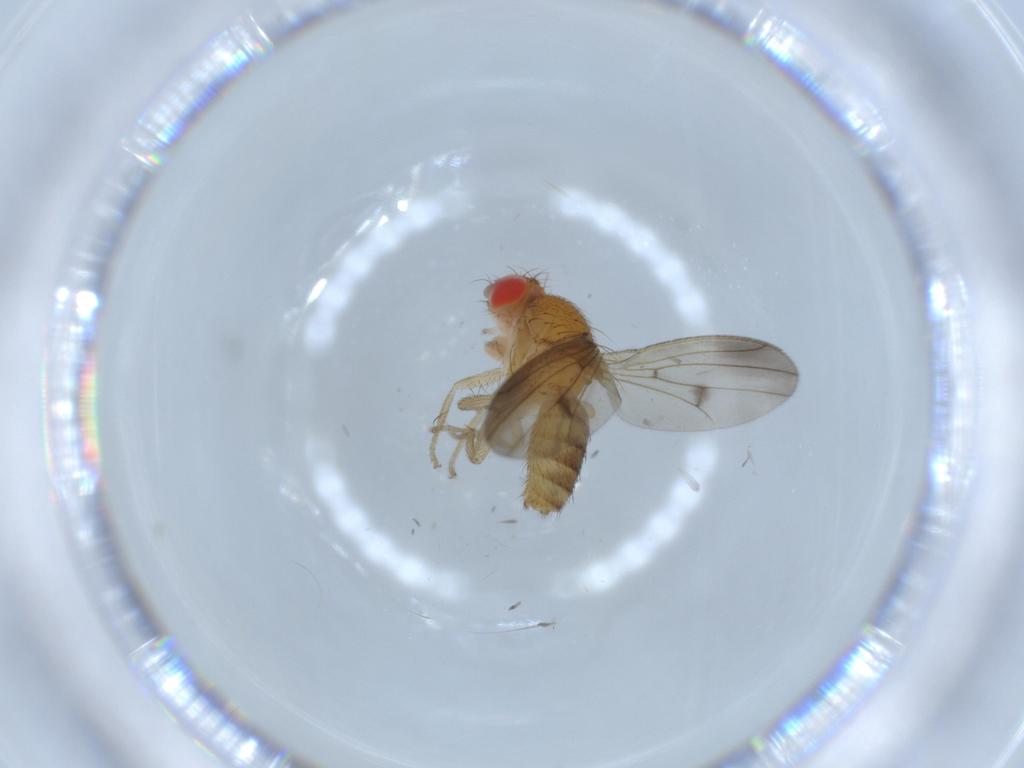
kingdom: Animalia
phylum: Arthropoda
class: Insecta
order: Diptera
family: Drosophilidae
